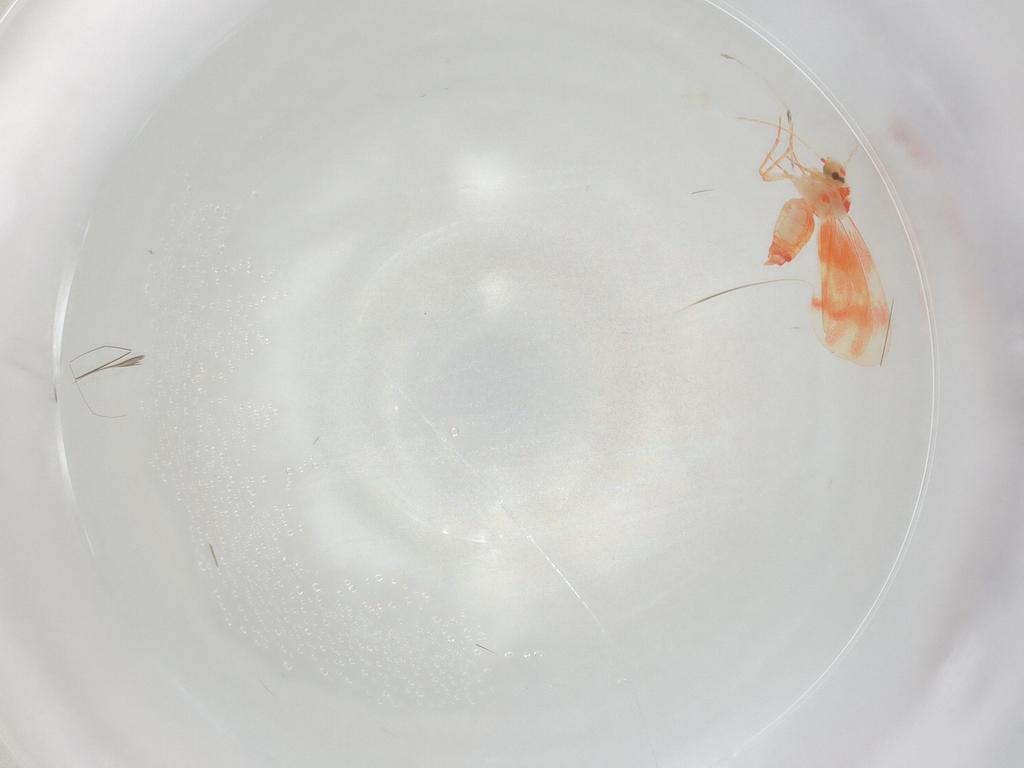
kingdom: Animalia
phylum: Arthropoda
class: Insecta
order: Hemiptera
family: Aleyrodidae
